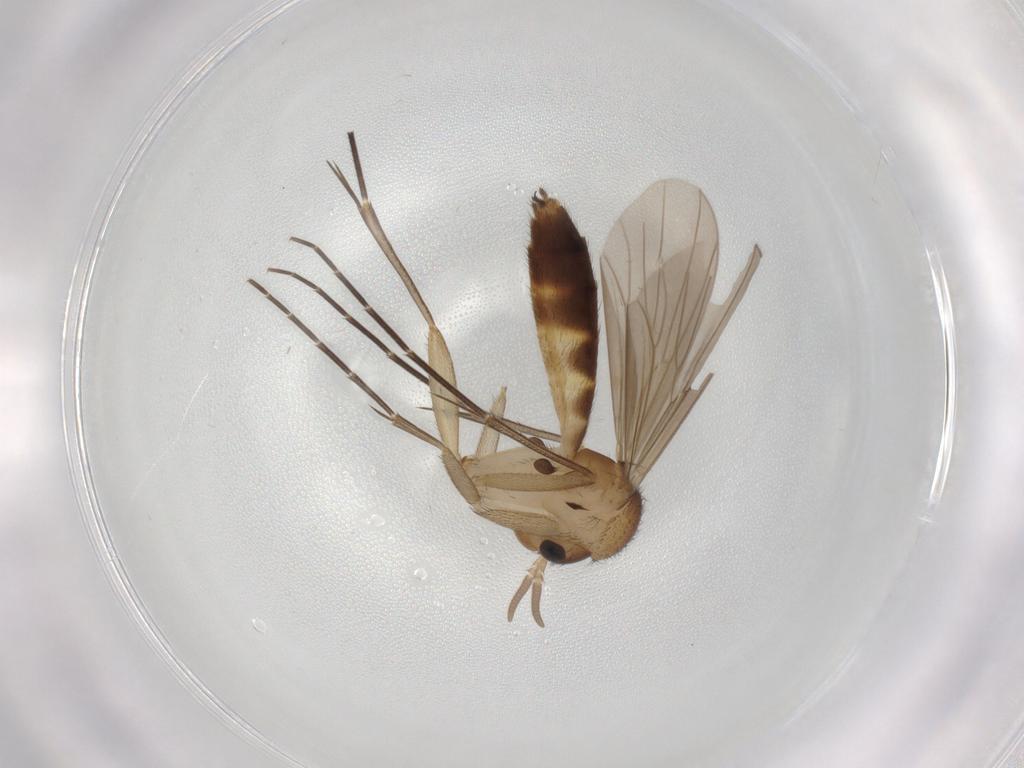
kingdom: Animalia
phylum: Arthropoda
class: Insecta
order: Diptera
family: Mycetophilidae
